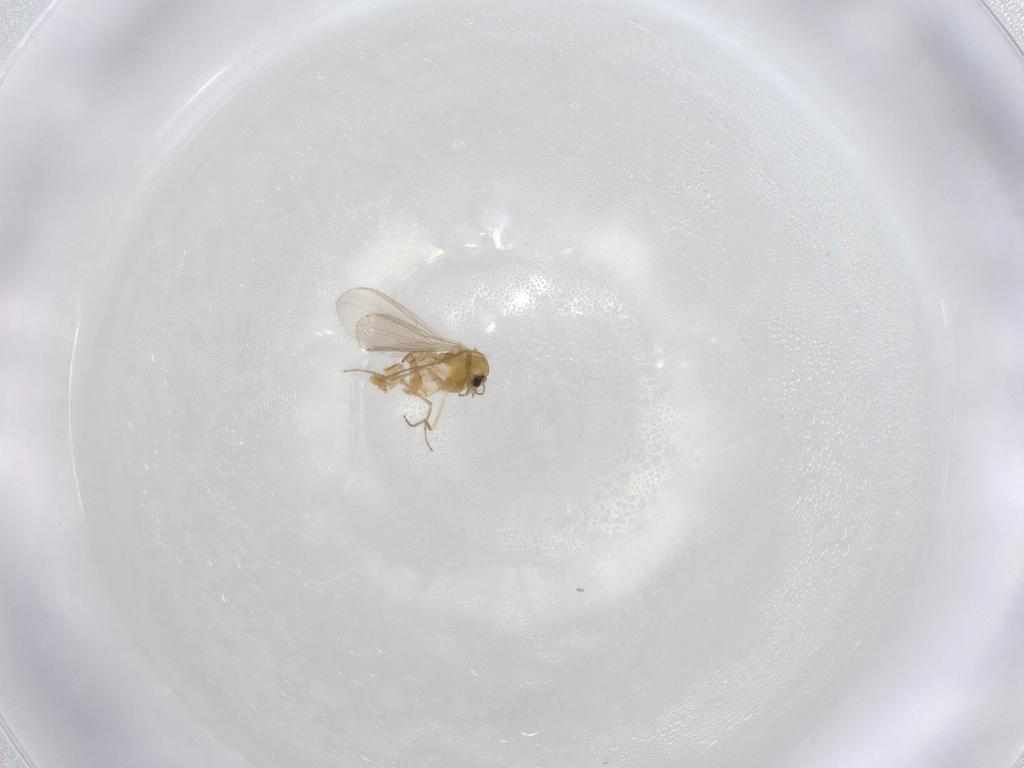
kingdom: Animalia
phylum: Arthropoda
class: Insecta
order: Diptera
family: Chironomidae
